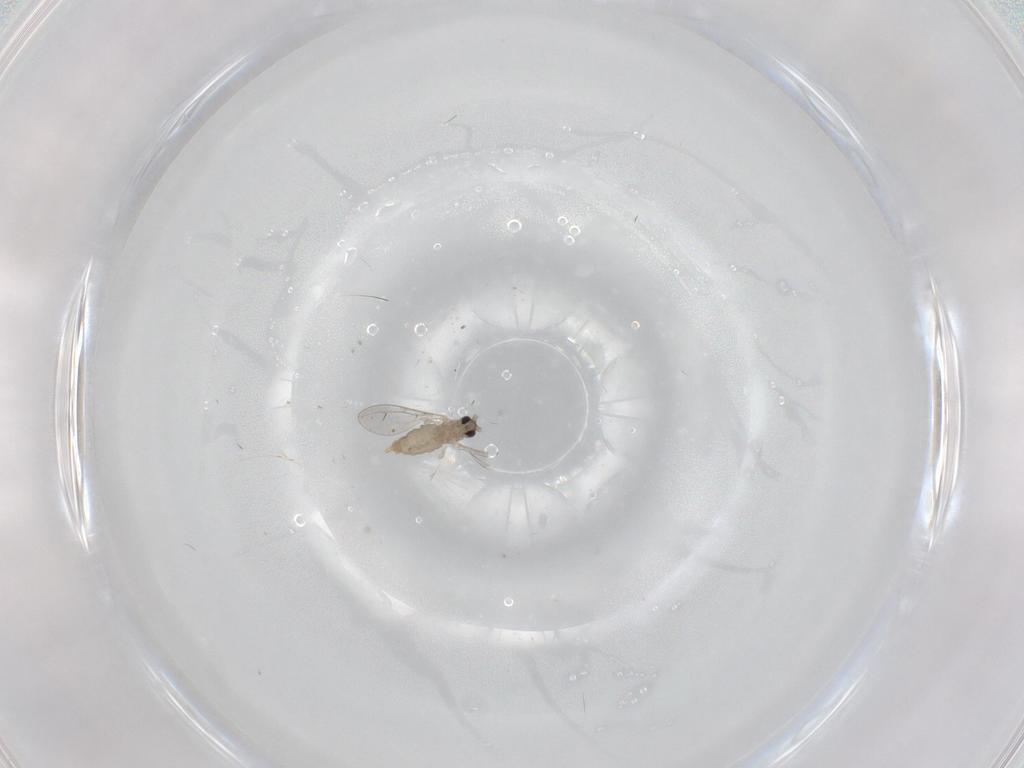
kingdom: Animalia
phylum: Arthropoda
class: Insecta
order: Diptera
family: Cecidomyiidae
